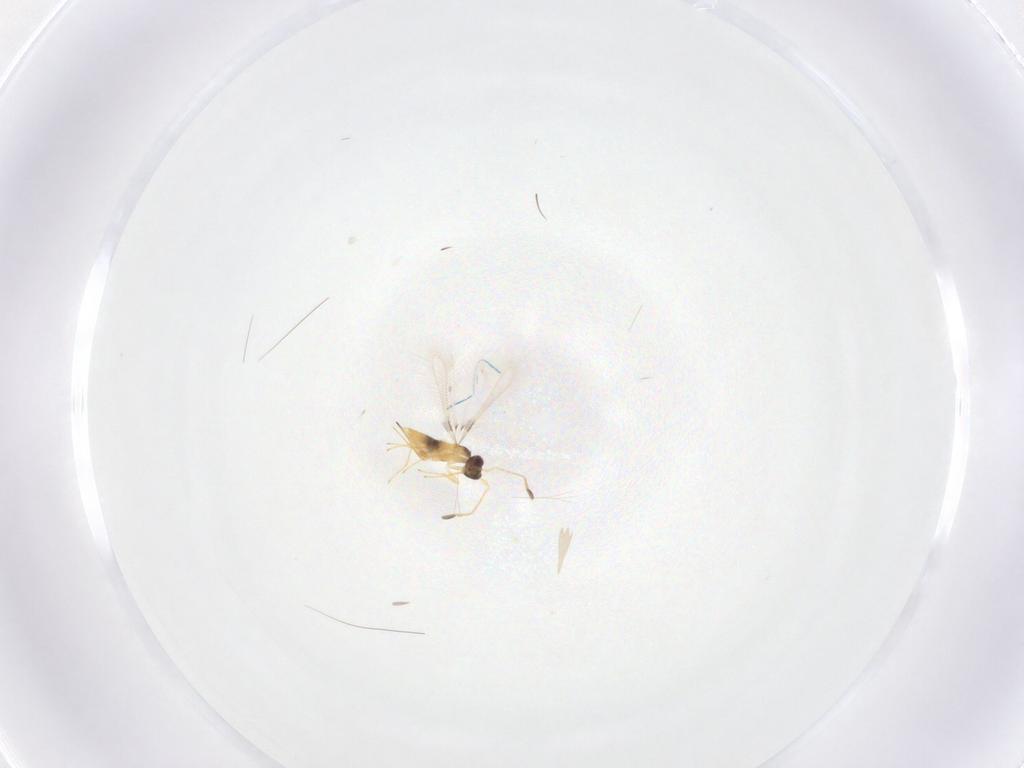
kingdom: Animalia
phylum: Arthropoda
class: Insecta
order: Hymenoptera
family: Mymaridae
